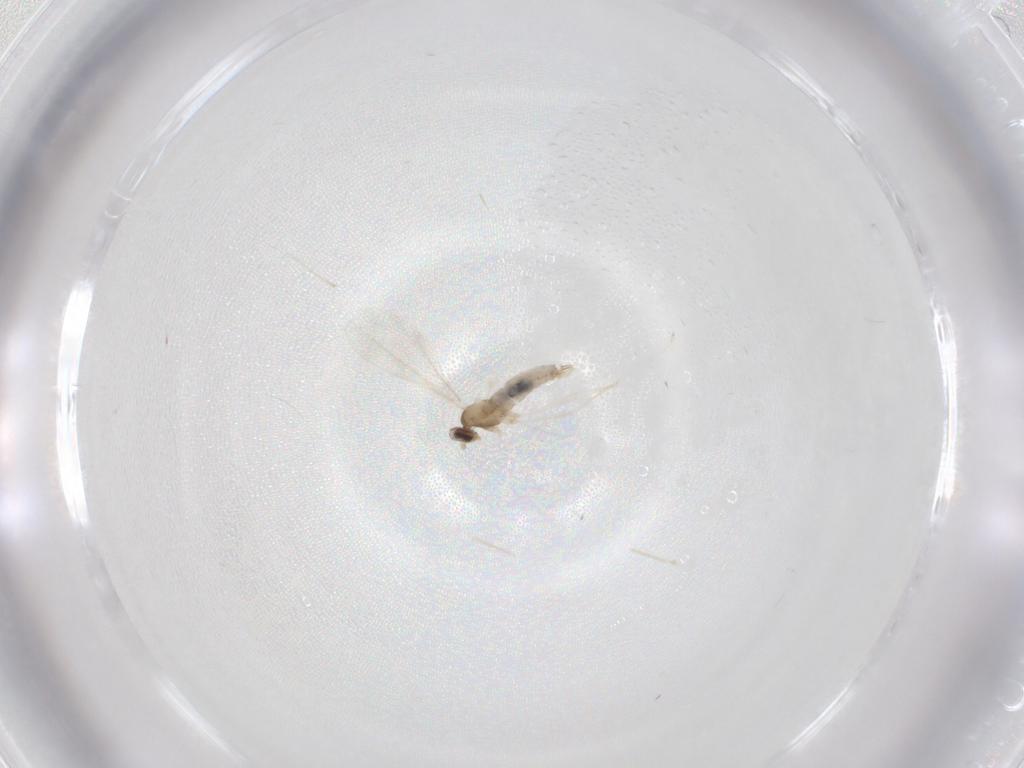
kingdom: Animalia
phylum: Arthropoda
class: Insecta
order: Diptera
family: Cecidomyiidae
